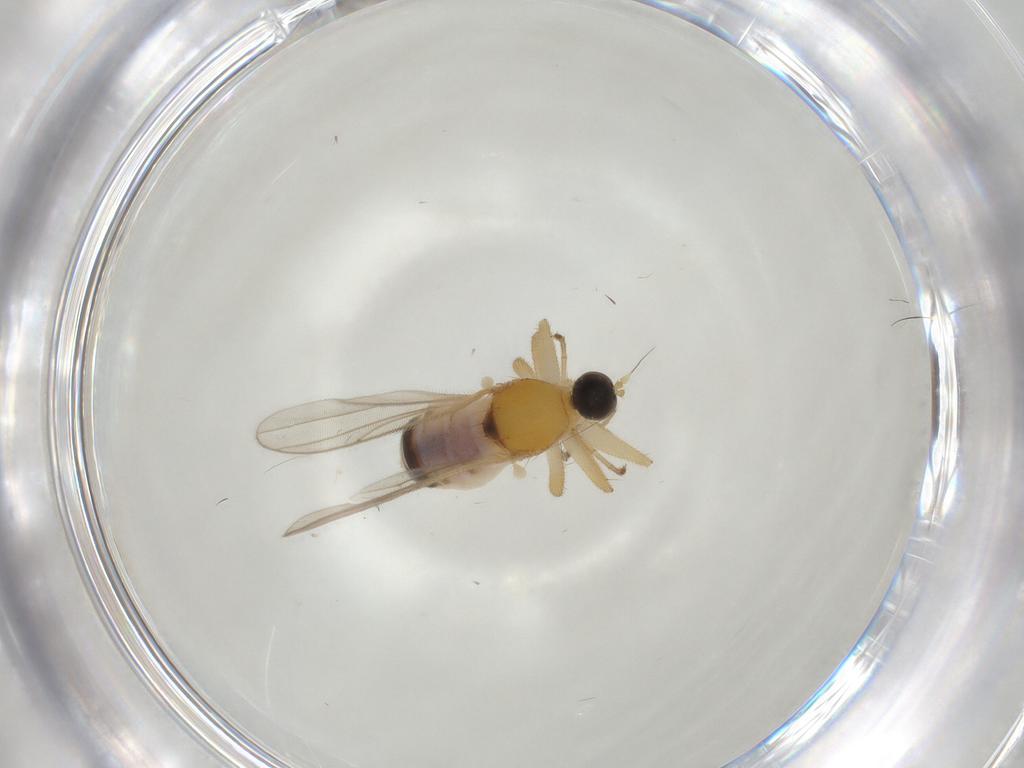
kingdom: Animalia
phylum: Arthropoda
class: Insecta
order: Diptera
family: Hybotidae
